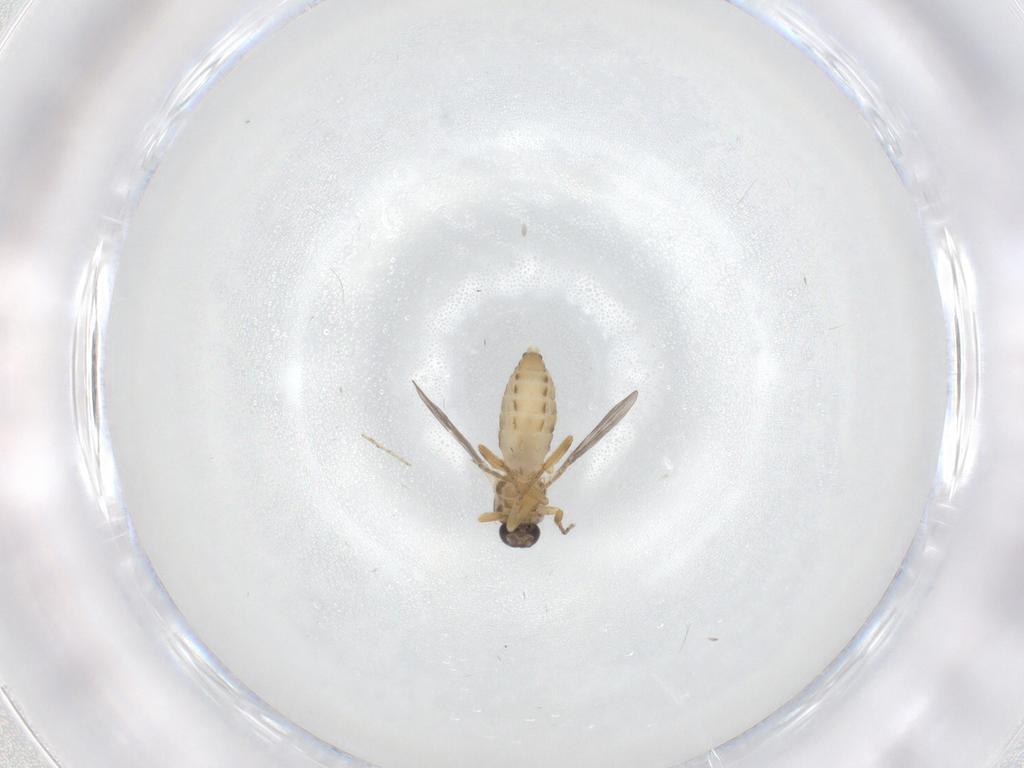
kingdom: Animalia
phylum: Arthropoda
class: Insecta
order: Diptera
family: Ceratopogonidae
